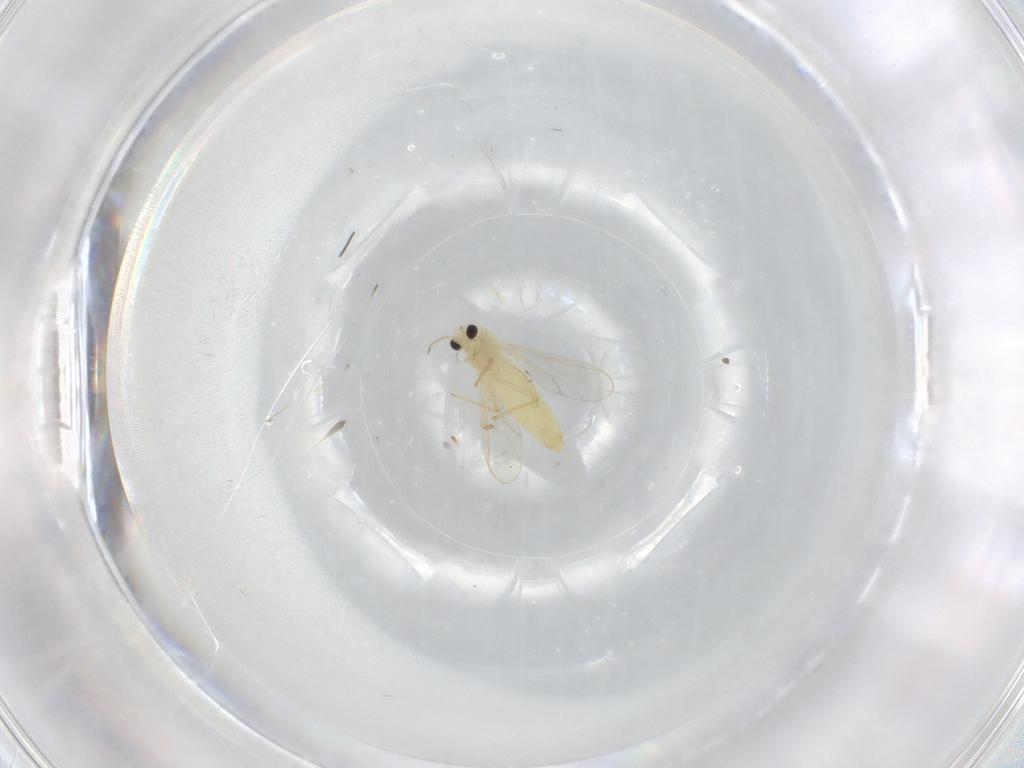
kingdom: Animalia
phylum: Arthropoda
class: Insecta
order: Diptera
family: Chironomidae
